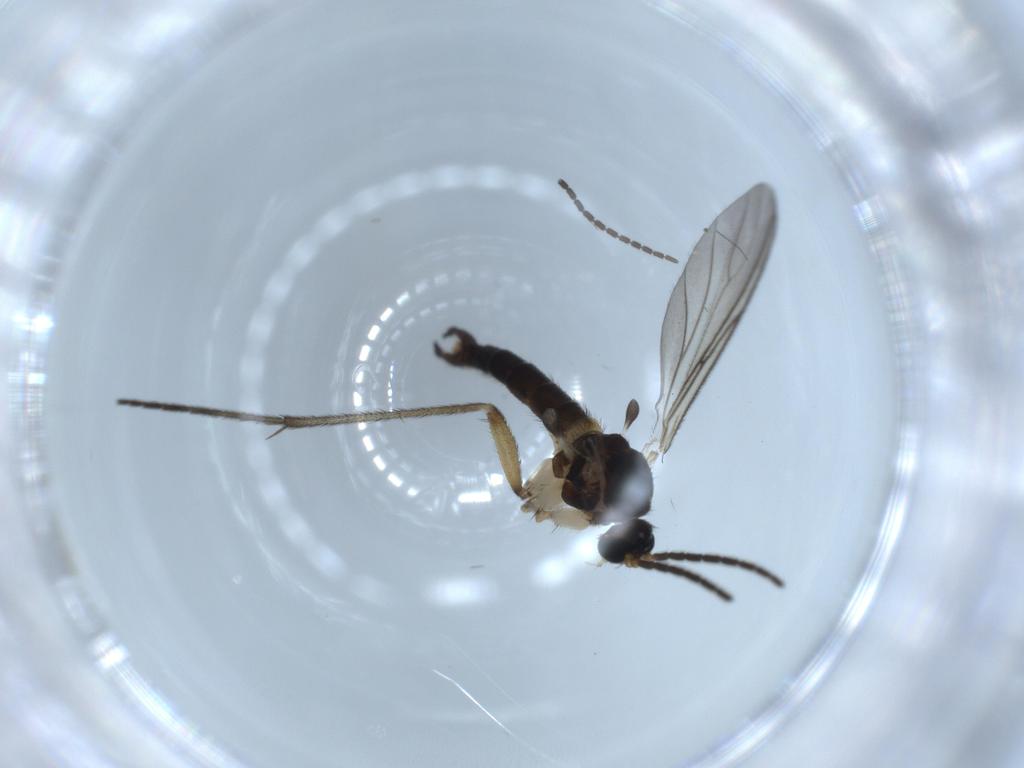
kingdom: Animalia
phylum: Arthropoda
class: Insecta
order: Diptera
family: Sciaridae
